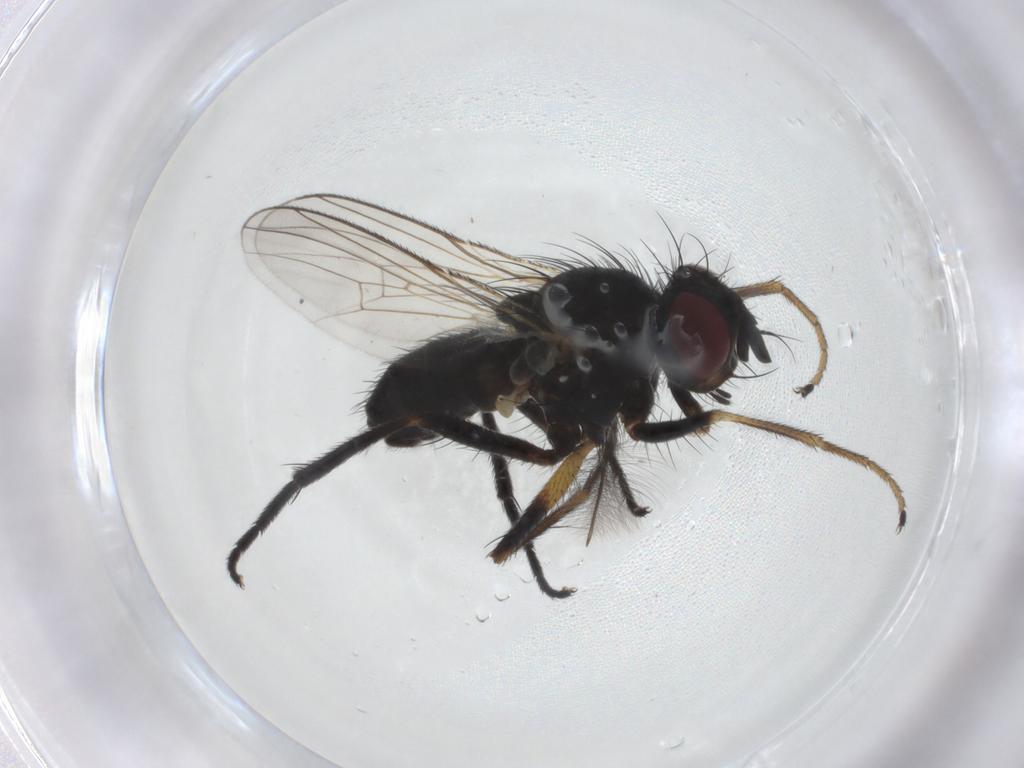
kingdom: Animalia
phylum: Arthropoda
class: Insecta
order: Diptera
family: Muscidae
